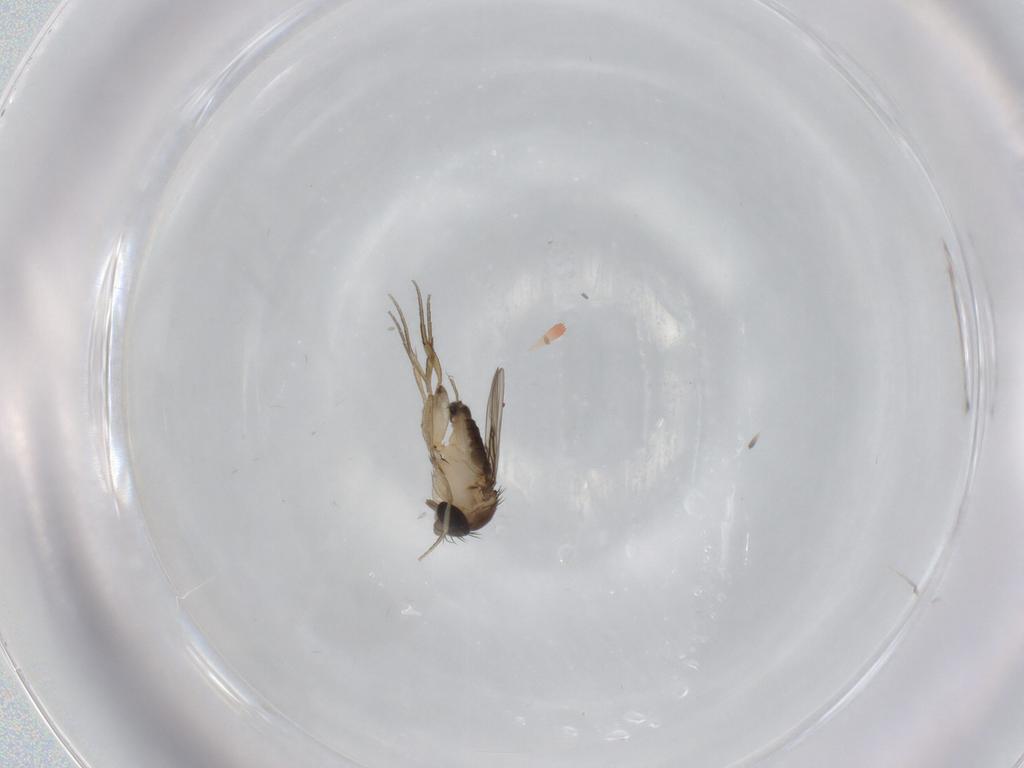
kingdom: Animalia
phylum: Arthropoda
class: Insecta
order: Diptera
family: Phoridae
